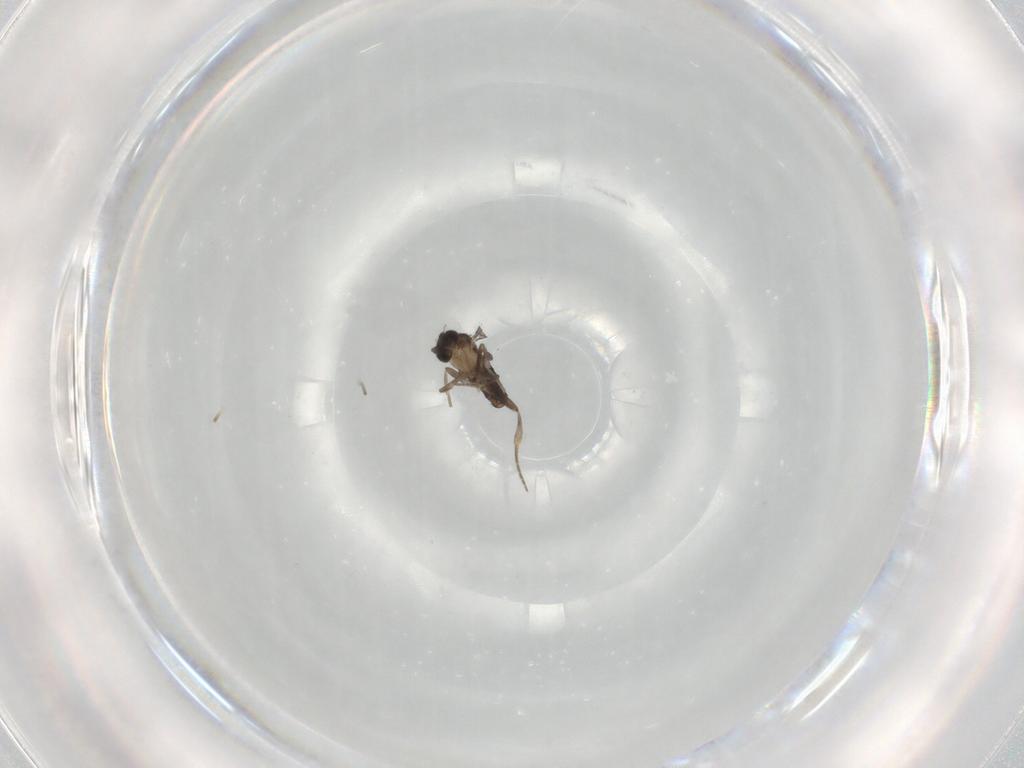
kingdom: Animalia
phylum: Arthropoda
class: Insecta
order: Diptera
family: Chironomidae
